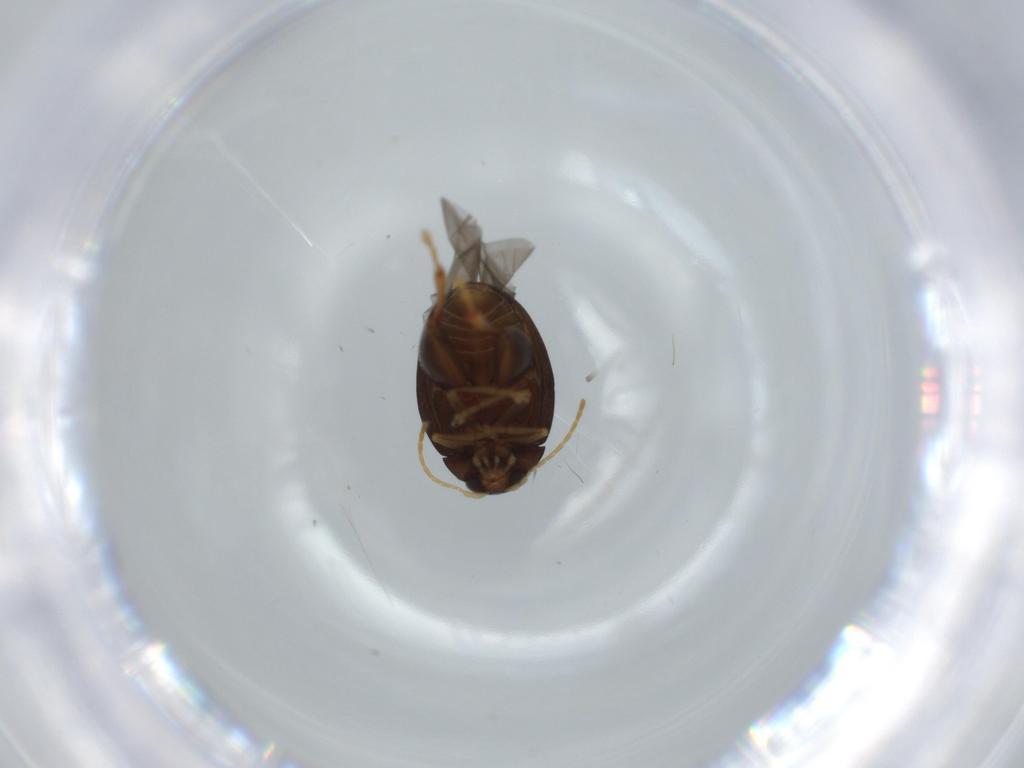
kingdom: Animalia
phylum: Arthropoda
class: Insecta
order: Coleoptera
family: Chrysomelidae
